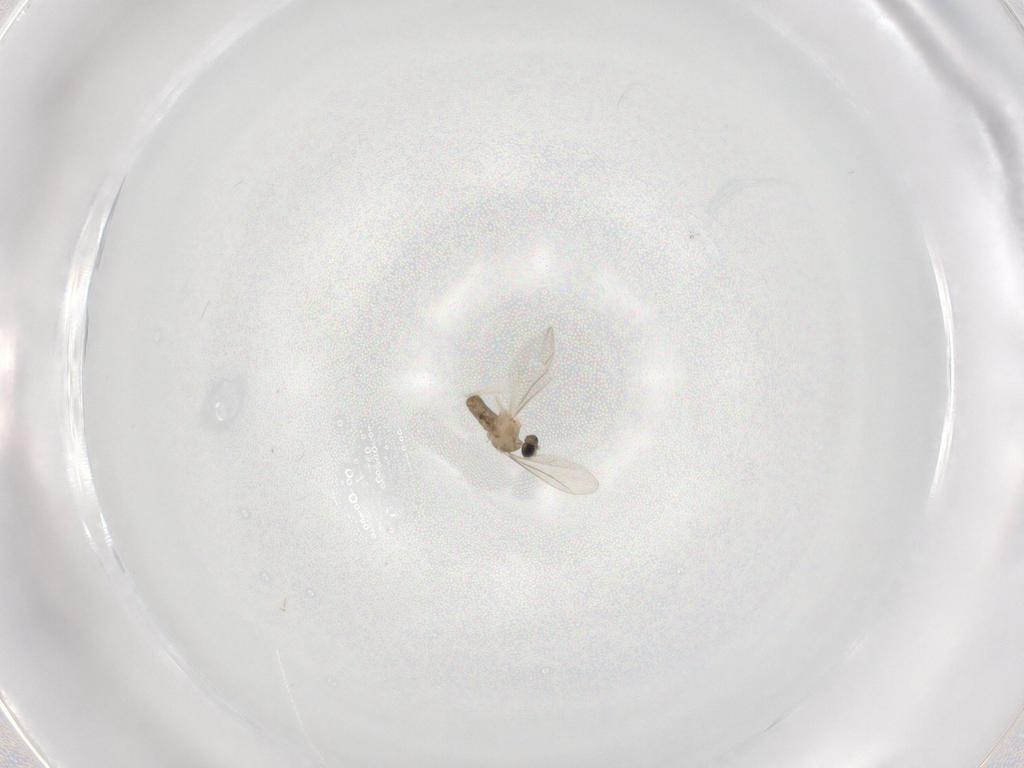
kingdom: Animalia
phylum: Arthropoda
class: Insecta
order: Diptera
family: Cecidomyiidae
